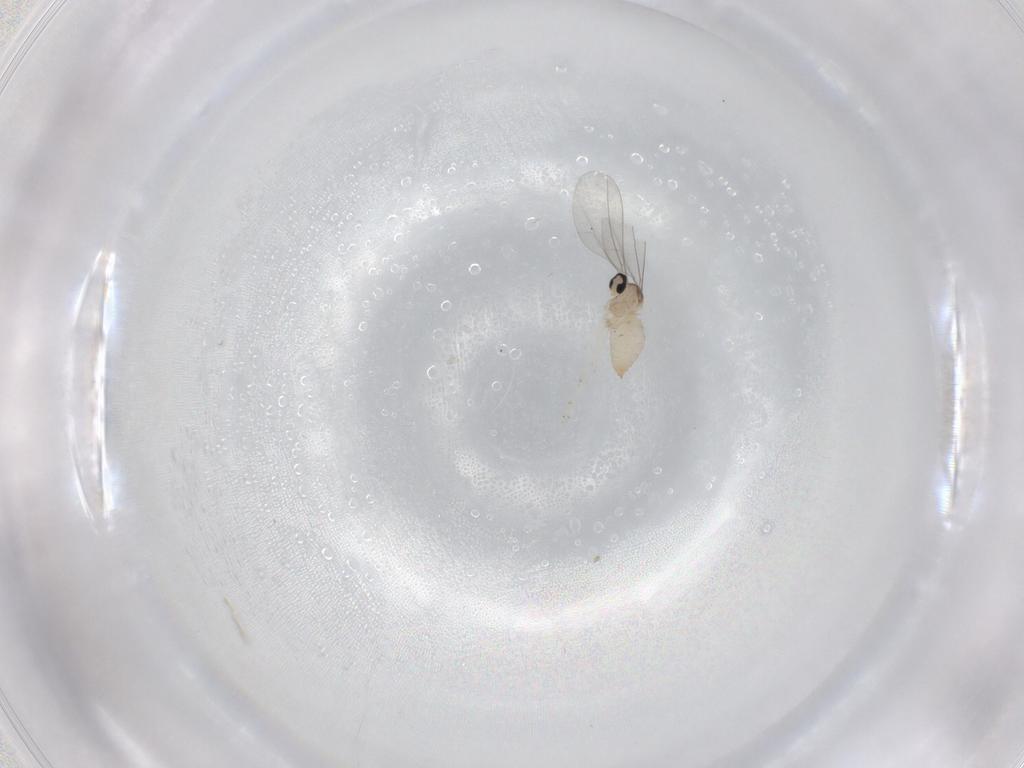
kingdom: Animalia
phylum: Arthropoda
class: Insecta
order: Diptera
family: Cecidomyiidae
